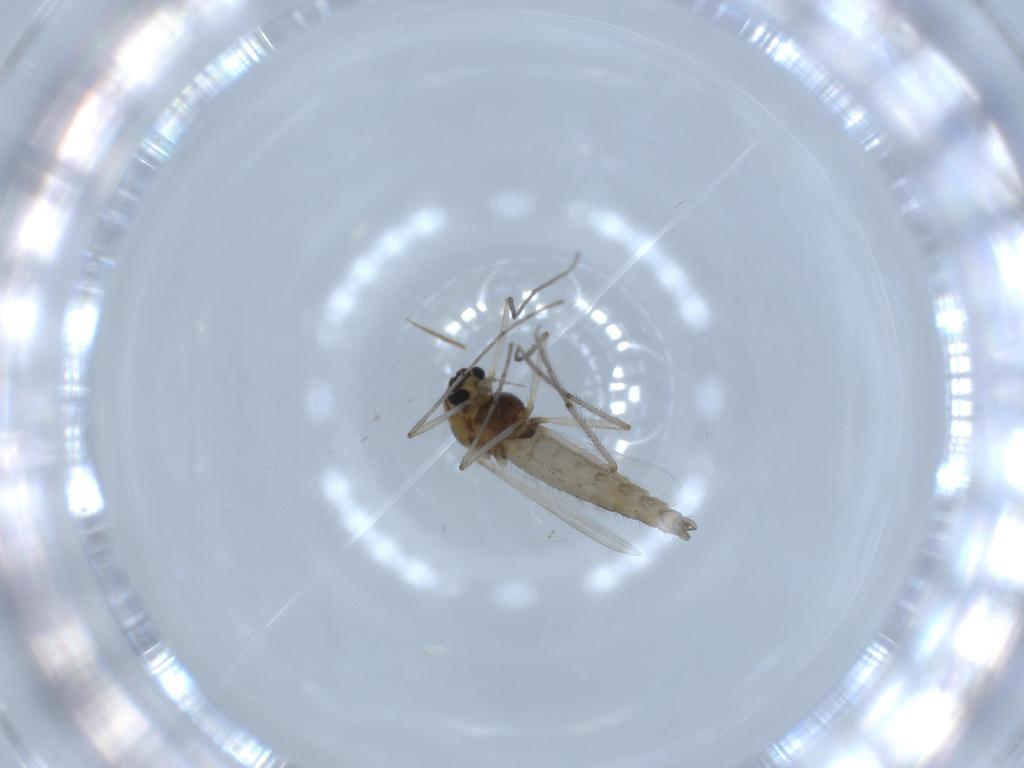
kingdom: Animalia
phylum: Arthropoda
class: Insecta
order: Diptera
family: Chironomidae
